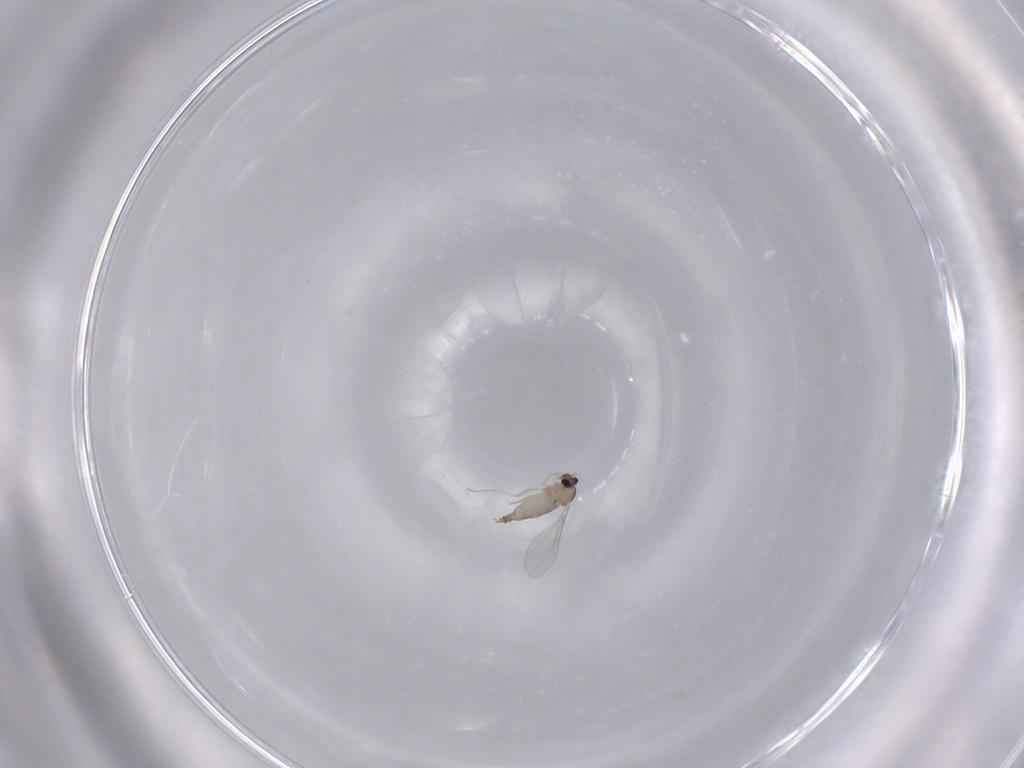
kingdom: Animalia
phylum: Arthropoda
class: Insecta
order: Diptera
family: Cecidomyiidae
